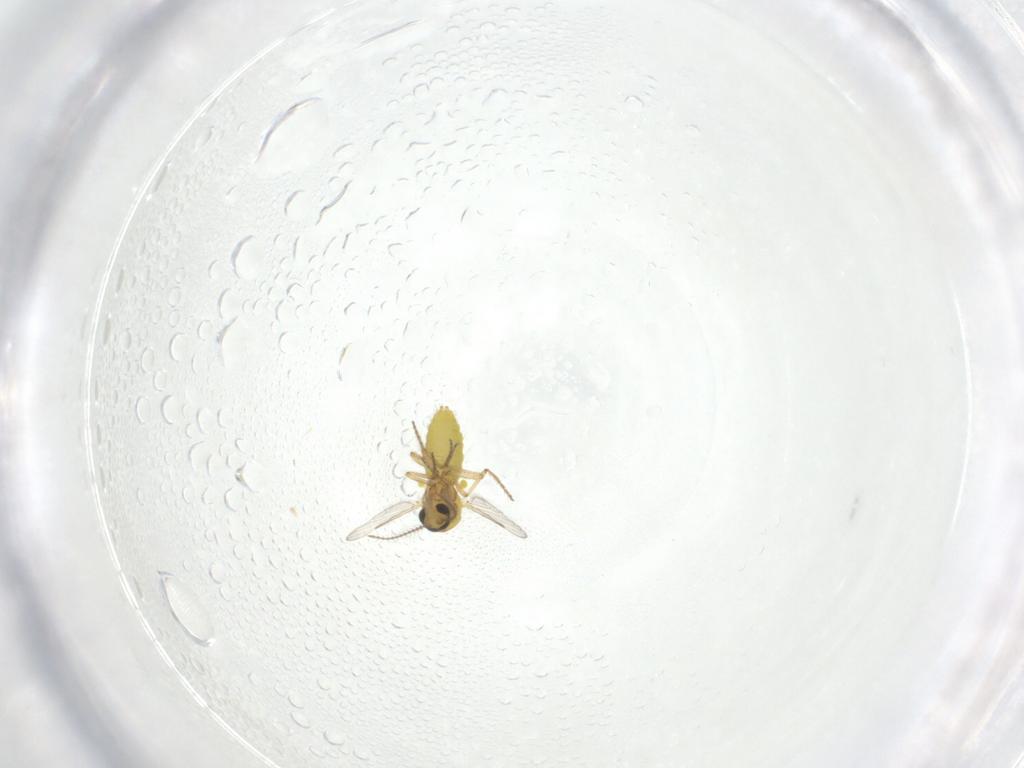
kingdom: Animalia
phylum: Arthropoda
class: Insecta
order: Diptera
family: Ceratopogonidae
